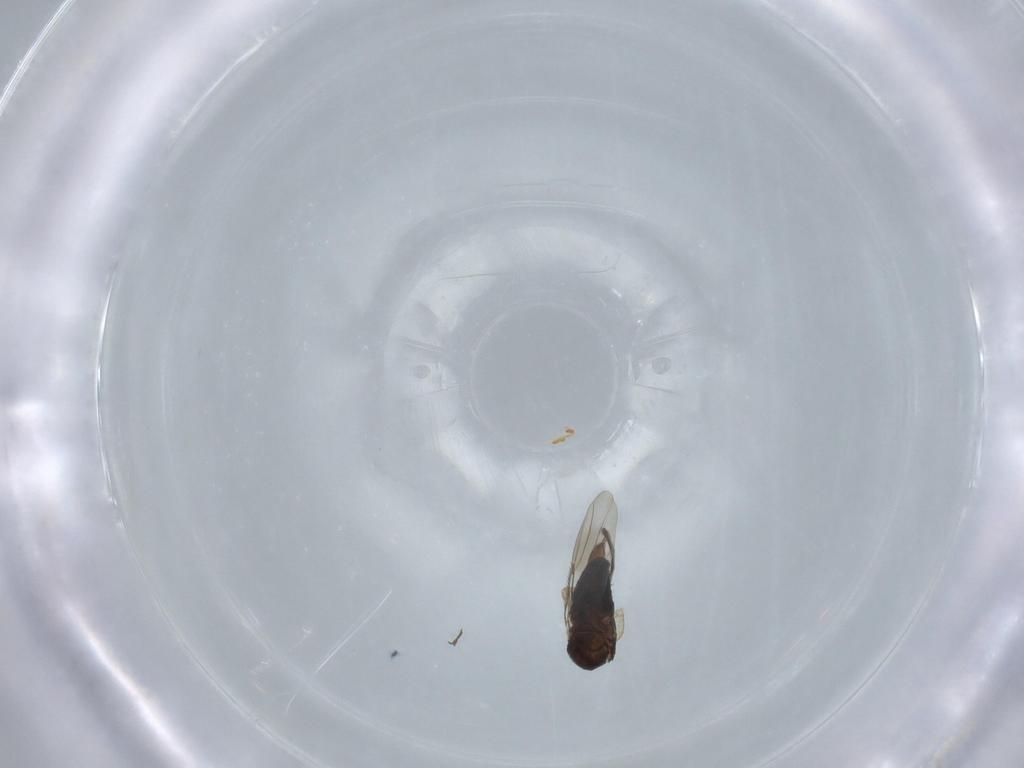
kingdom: Animalia
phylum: Arthropoda
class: Insecta
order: Diptera
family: Phoridae
